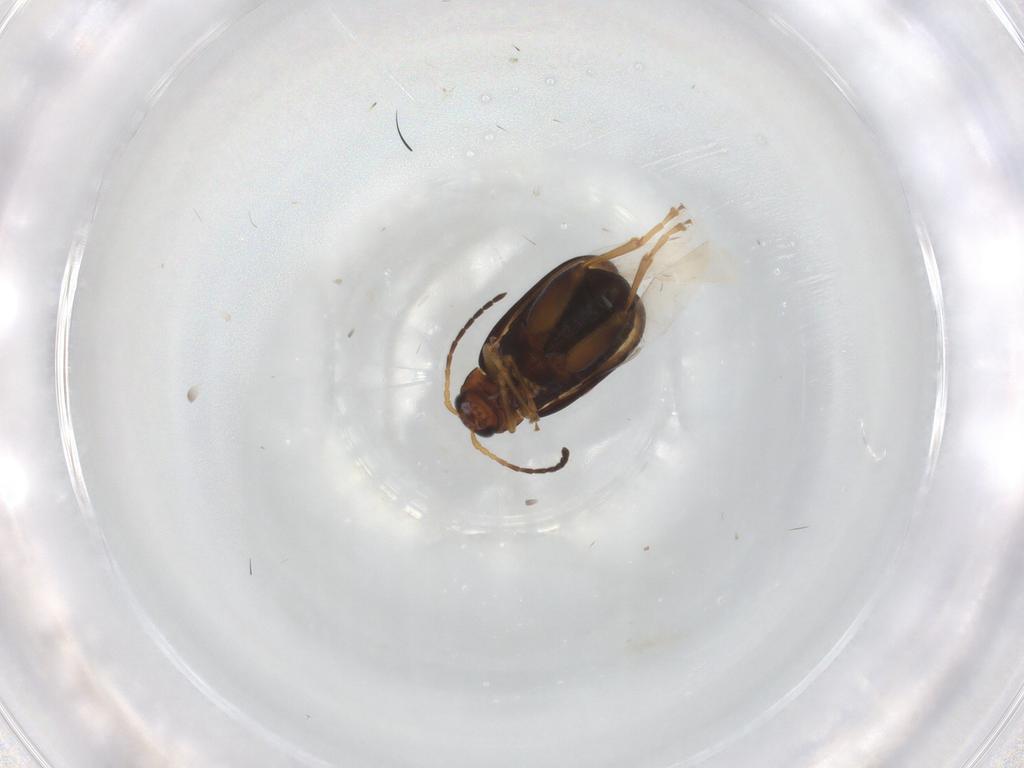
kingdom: Animalia
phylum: Arthropoda
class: Insecta
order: Coleoptera
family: Chrysomelidae
